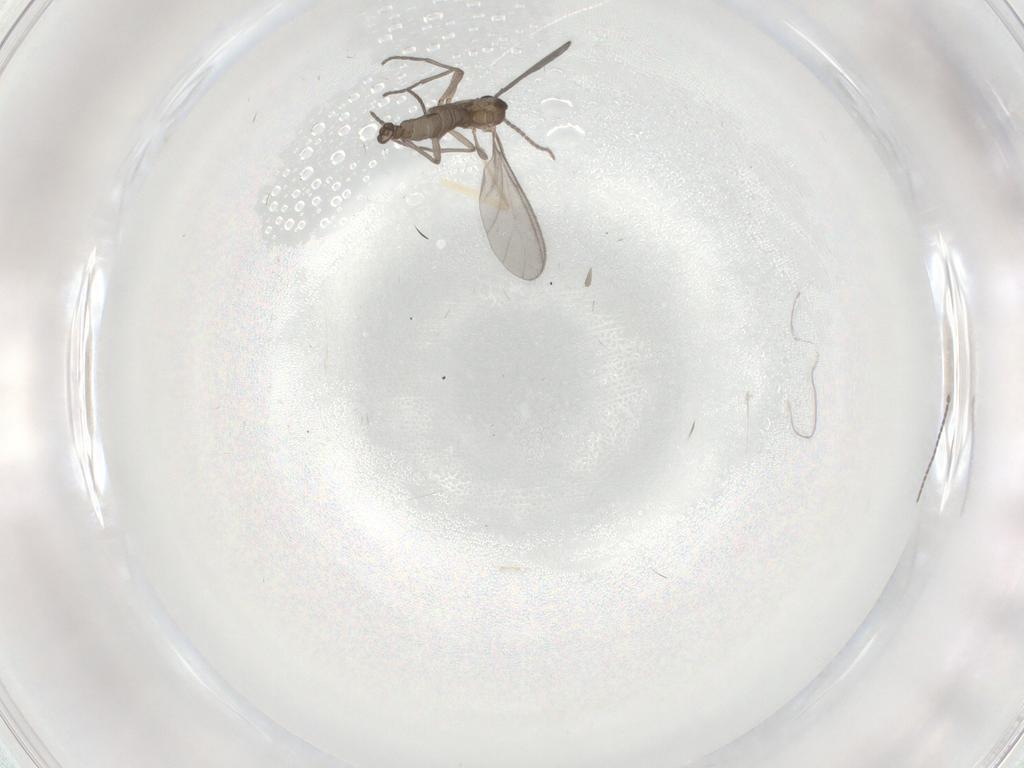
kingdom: Animalia
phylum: Arthropoda
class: Insecta
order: Diptera
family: Sciaridae
